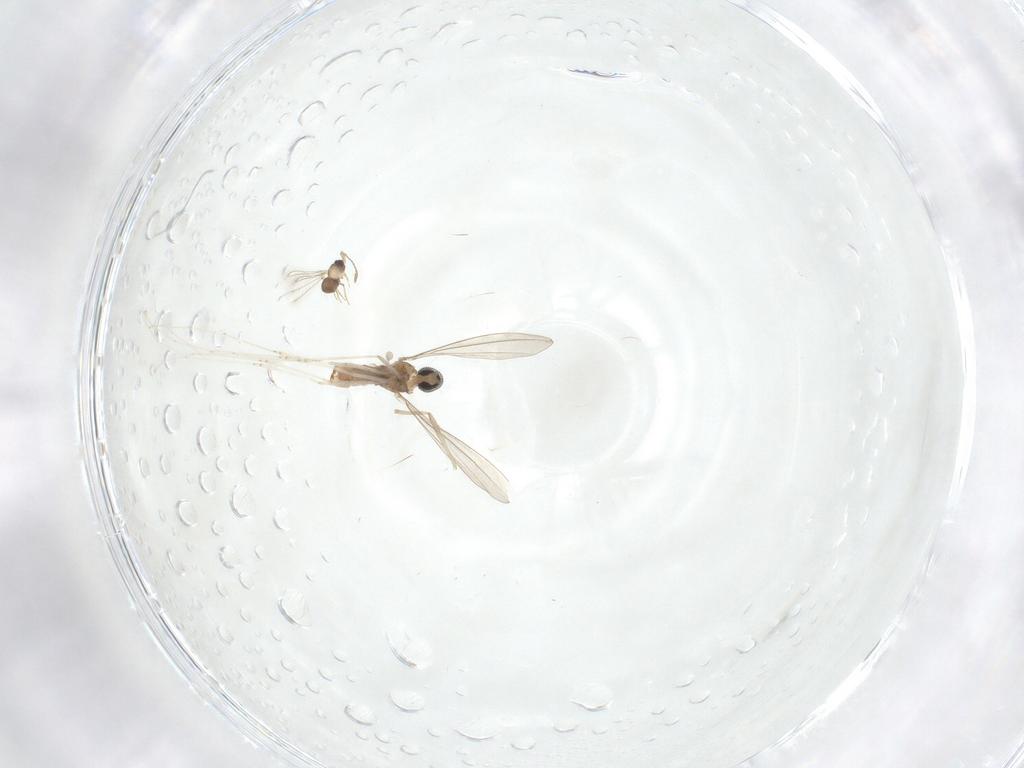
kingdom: Animalia
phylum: Arthropoda
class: Insecta
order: Diptera
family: Cecidomyiidae
